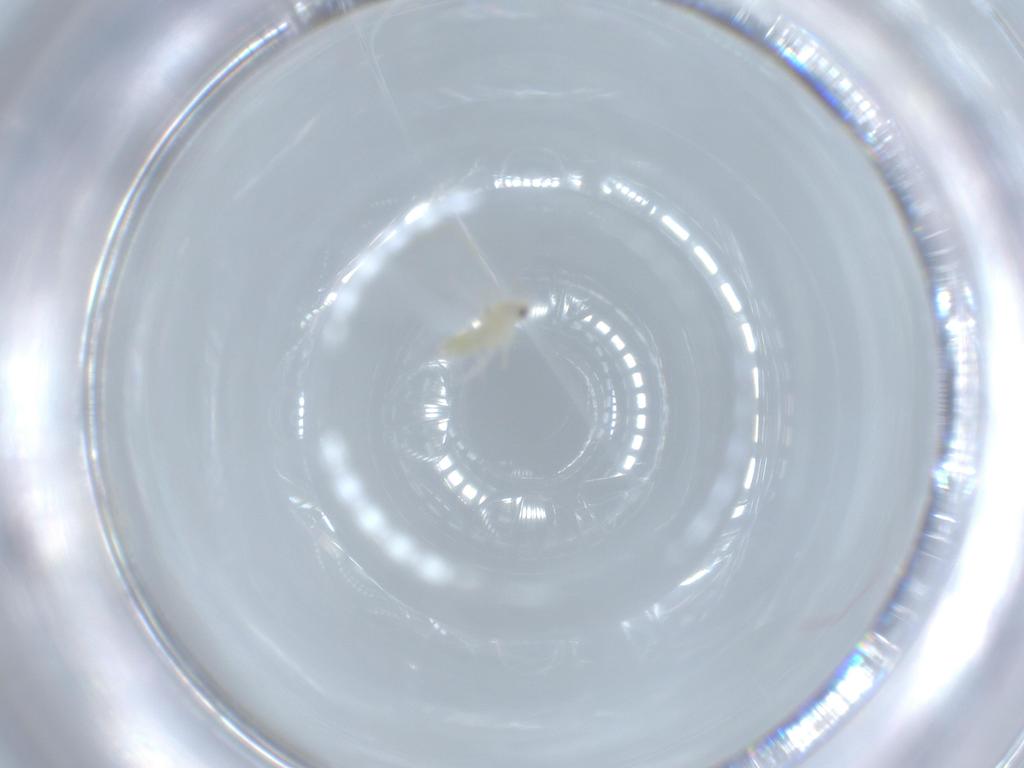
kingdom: Animalia
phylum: Arthropoda
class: Insecta
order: Hemiptera
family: Aleyrodidae
